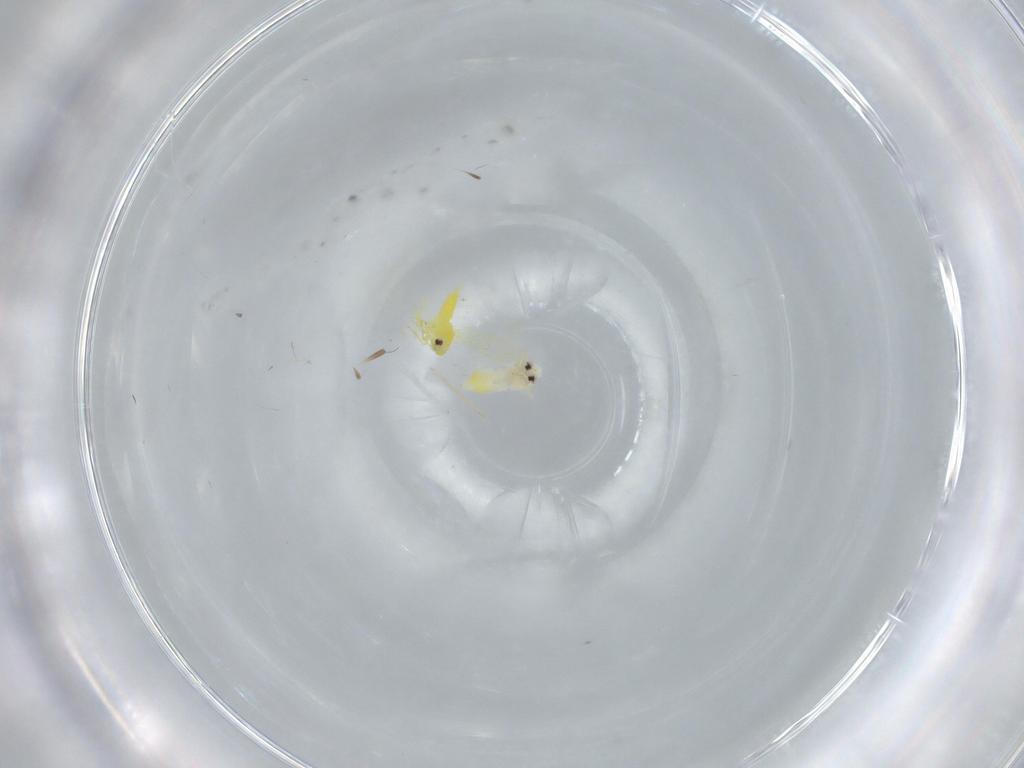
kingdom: Animalia
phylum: Arthropoda
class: Insecta
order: Hemiptera
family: Aleyrodidae
